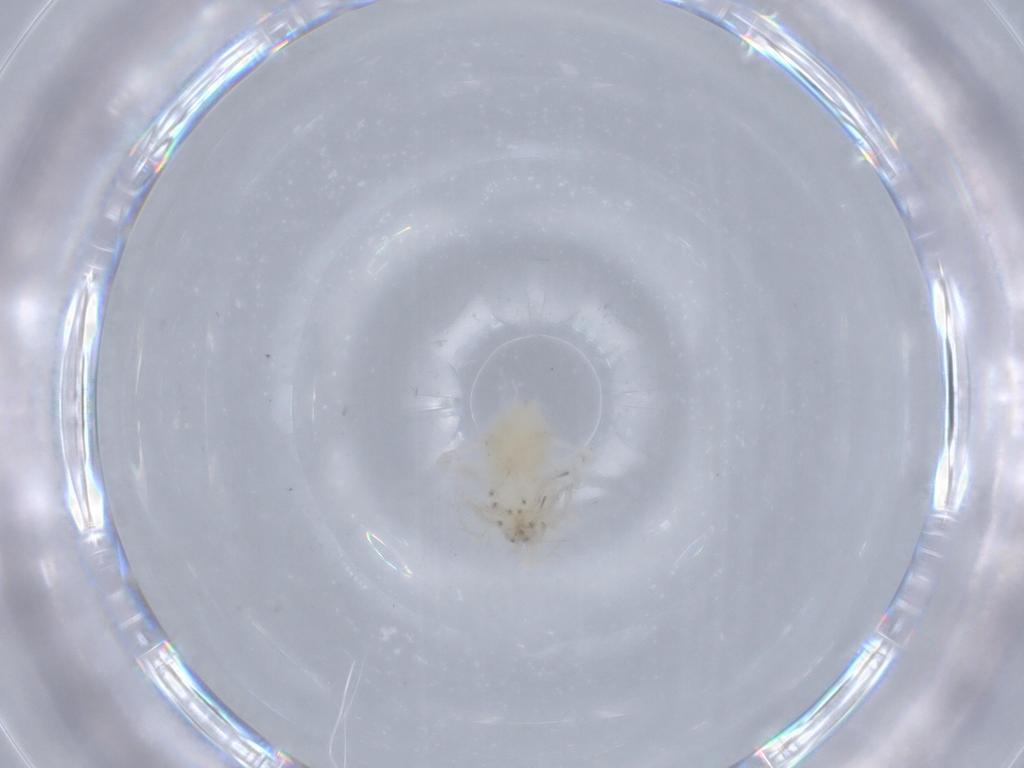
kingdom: Animalia
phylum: Arthropoda
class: Arachnida
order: Araneae
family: Anyphaenidae
